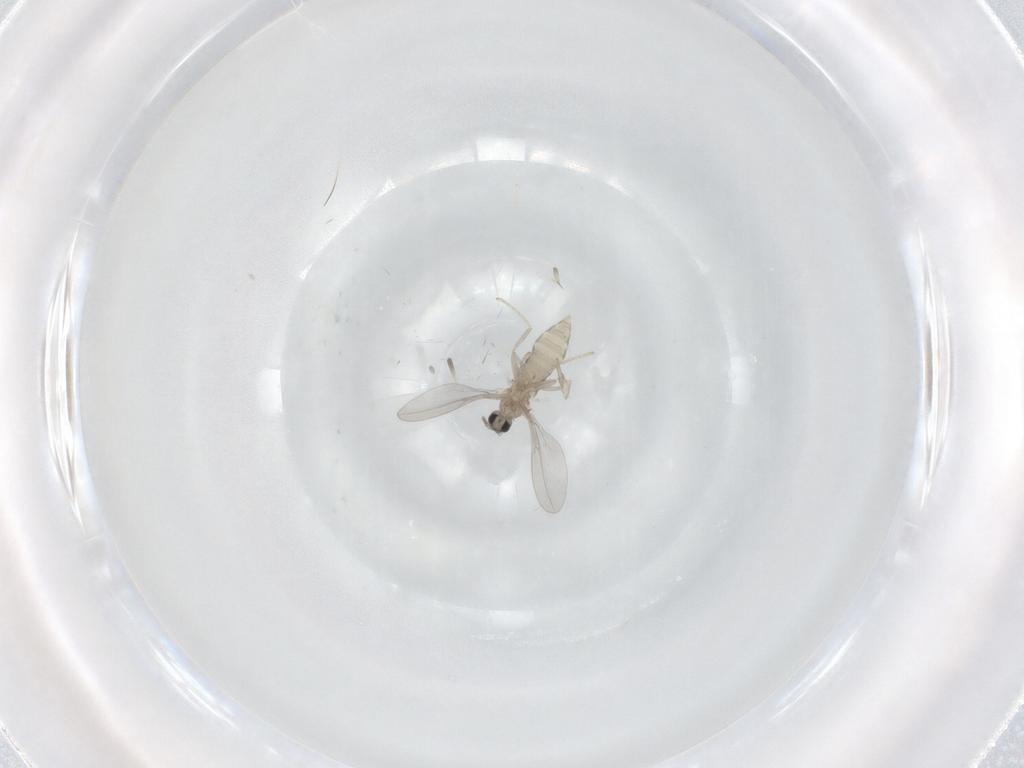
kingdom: Animalia
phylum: Arthropoda
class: Insecta
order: Diptera
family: Cecidomyiidae
